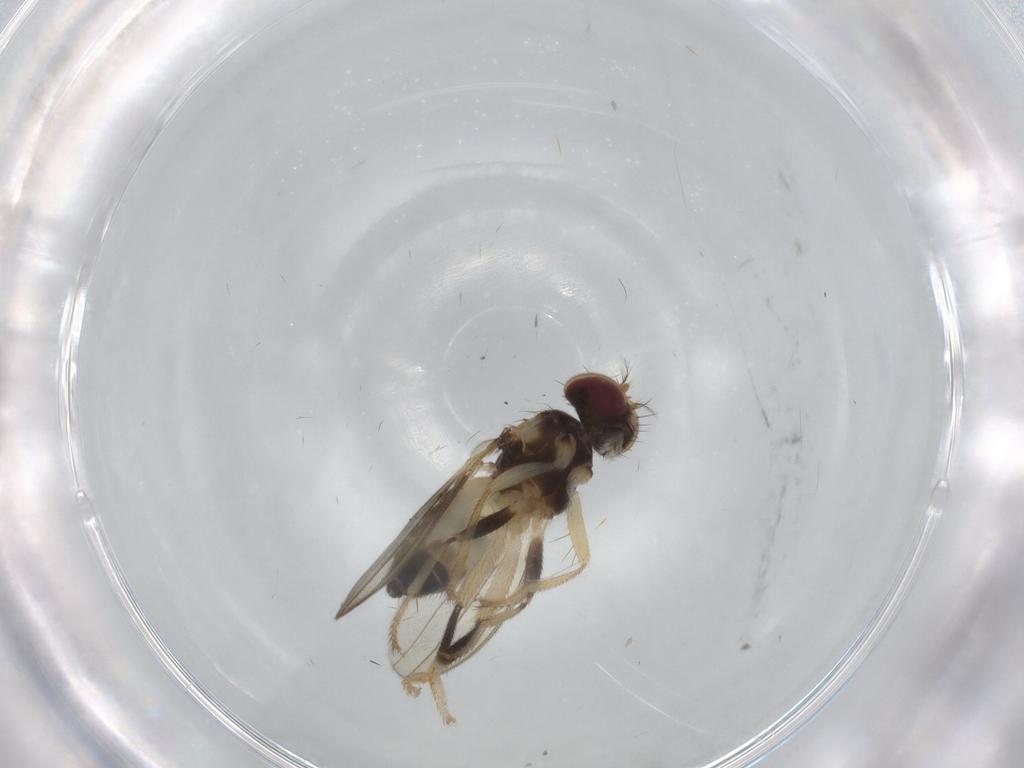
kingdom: Animalia
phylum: Arthropoda
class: Insecta
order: Diptera
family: Periscelididae
